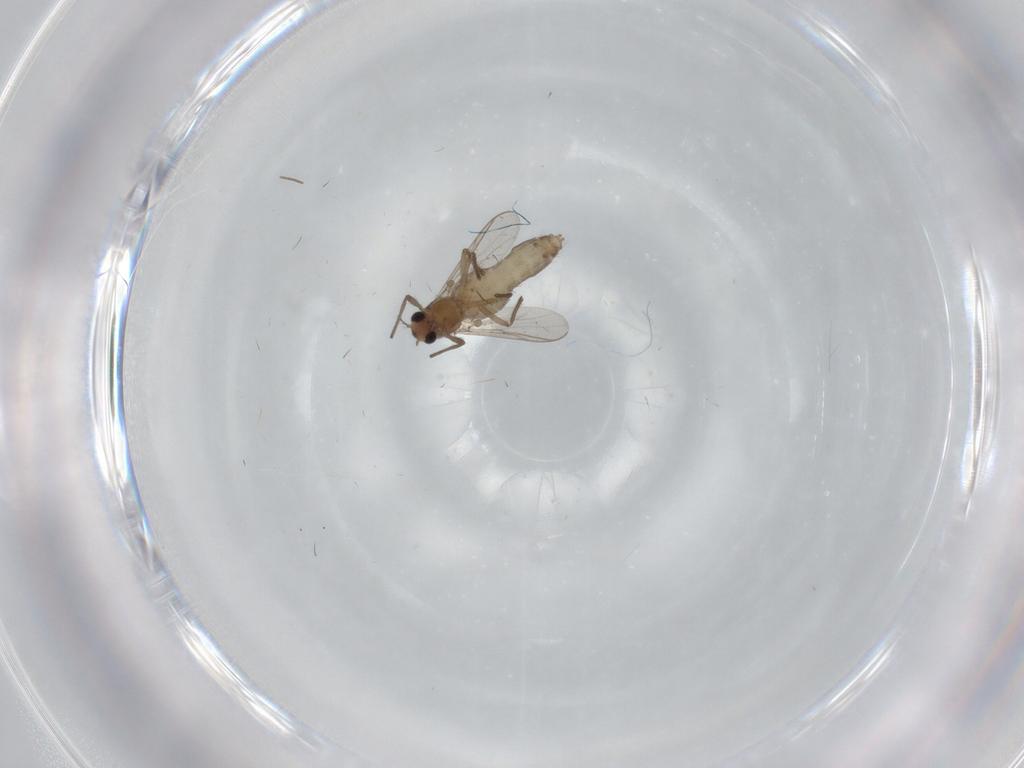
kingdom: Animalia
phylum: Arthropoda
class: Insecta
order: Diptera
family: Chironomidae
